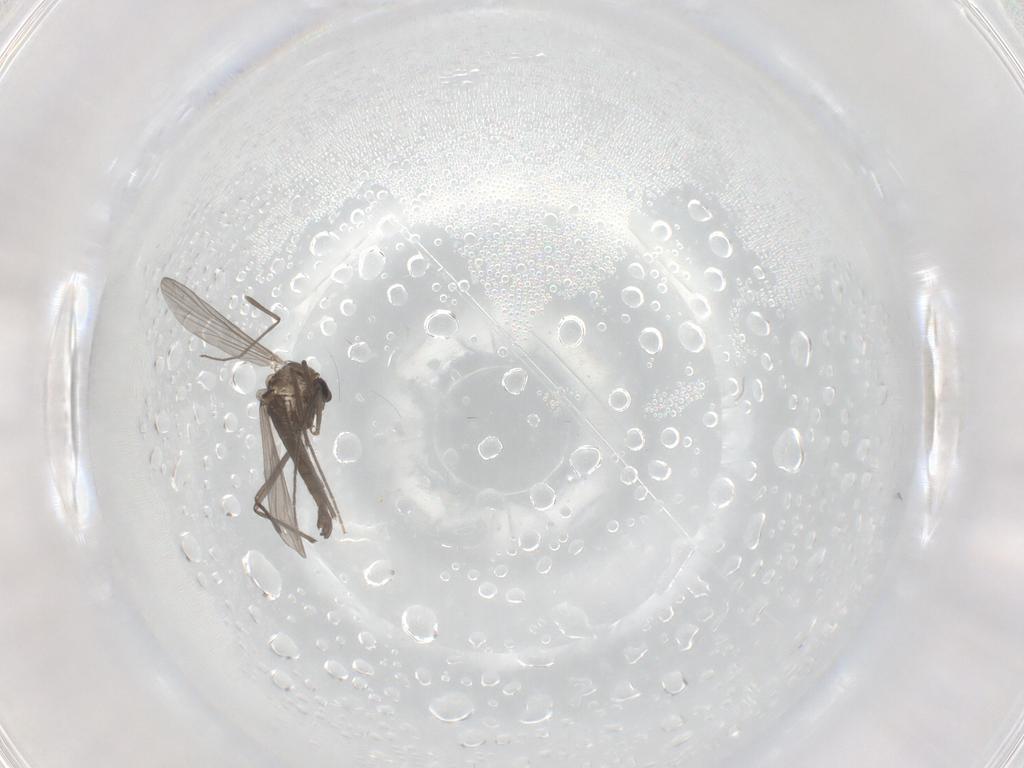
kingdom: Animalia
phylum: Arthropoda
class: Insecta
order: Diptera
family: Chironomidae
